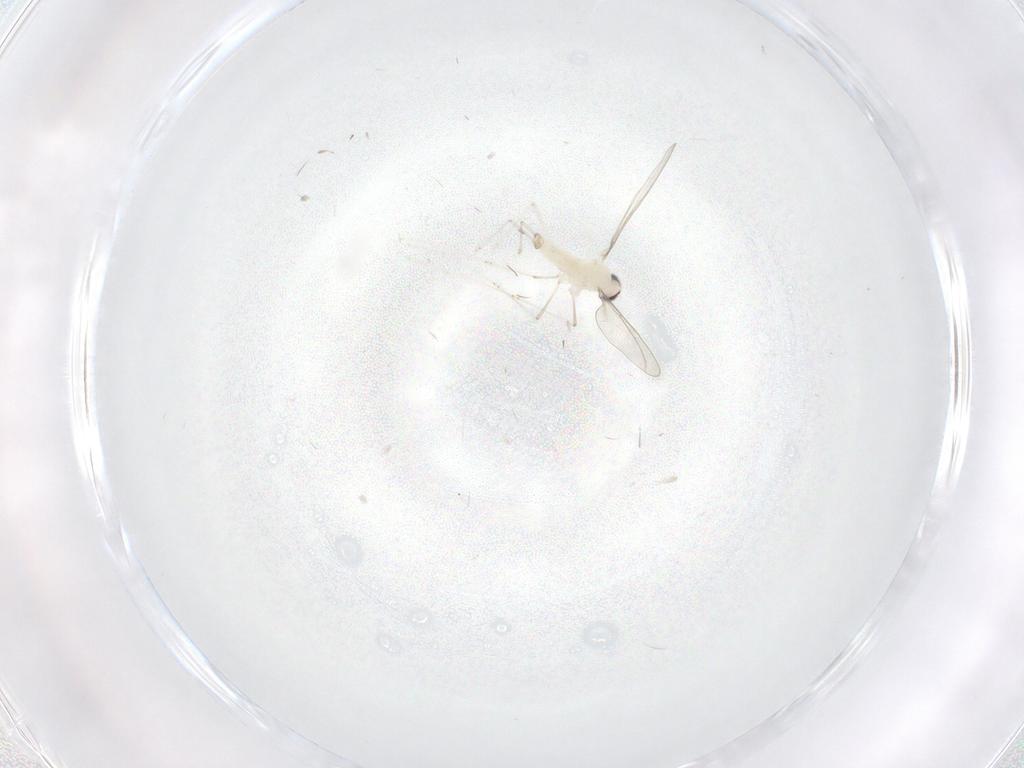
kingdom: Animalia
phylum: Arthropoda
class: Insecta
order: Diptera
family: Cecidomyiidae
